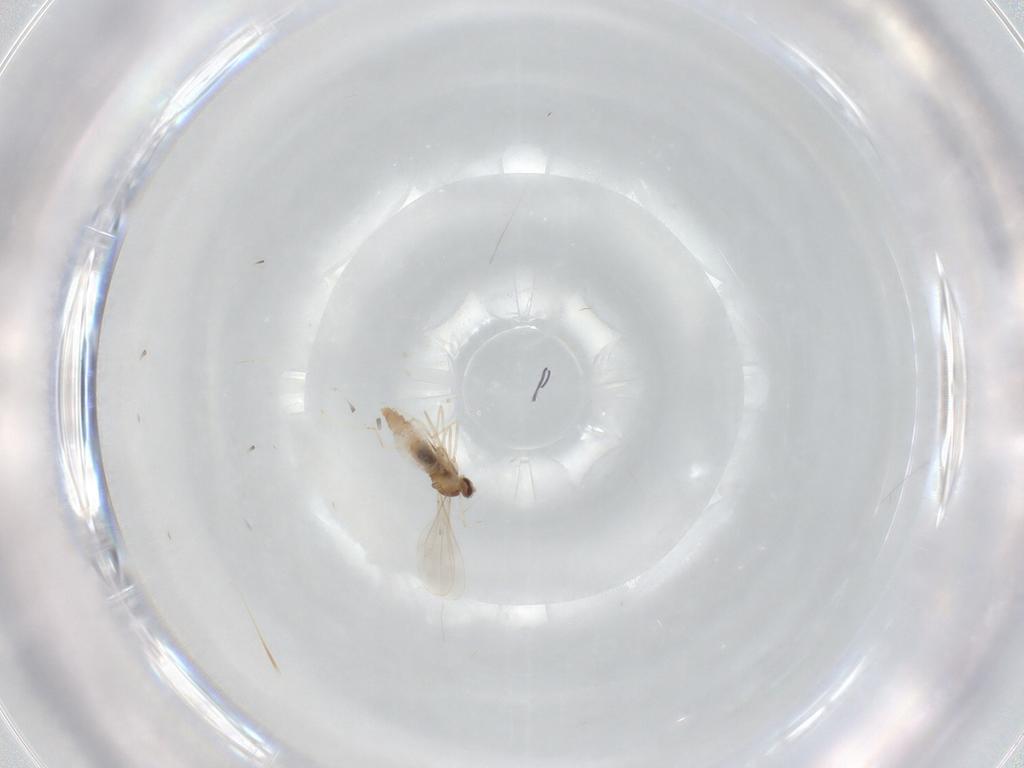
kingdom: Animalia
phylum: Arthropoda
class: Insecta
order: Diptera
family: Cecidomyiidae
